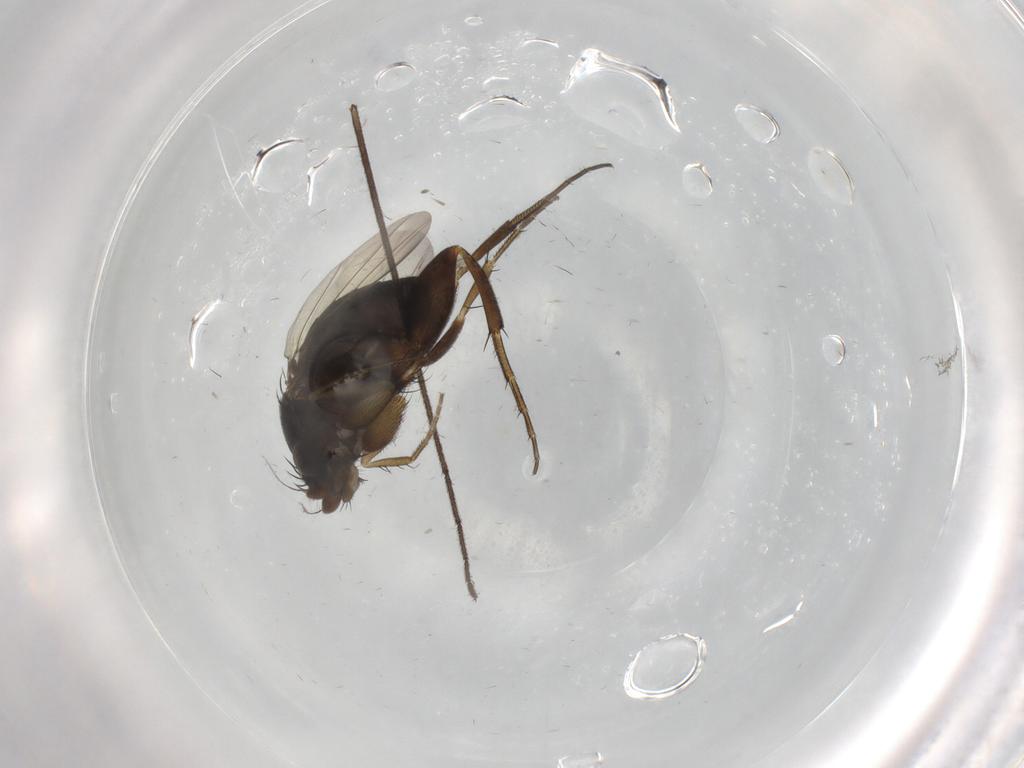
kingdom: Animalia
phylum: Arthropoda
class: Insecta
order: Diptera
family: Phoridae
